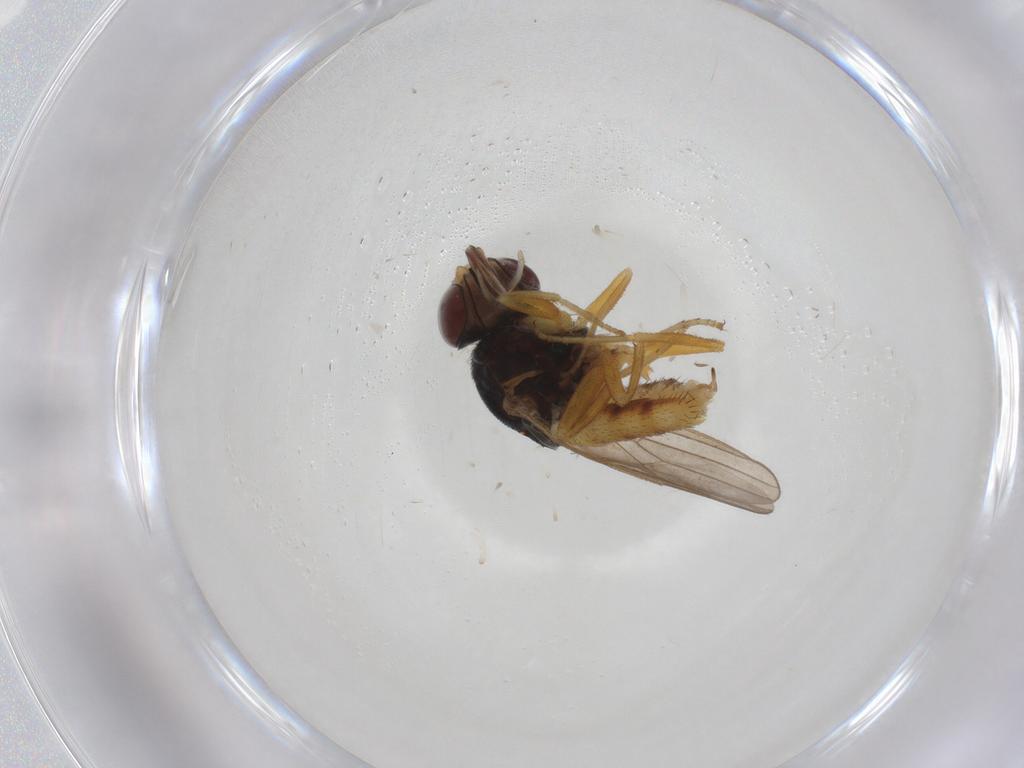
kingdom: Animalia
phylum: Arthropoda
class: Insecta
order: Diptera
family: Chloropidae
